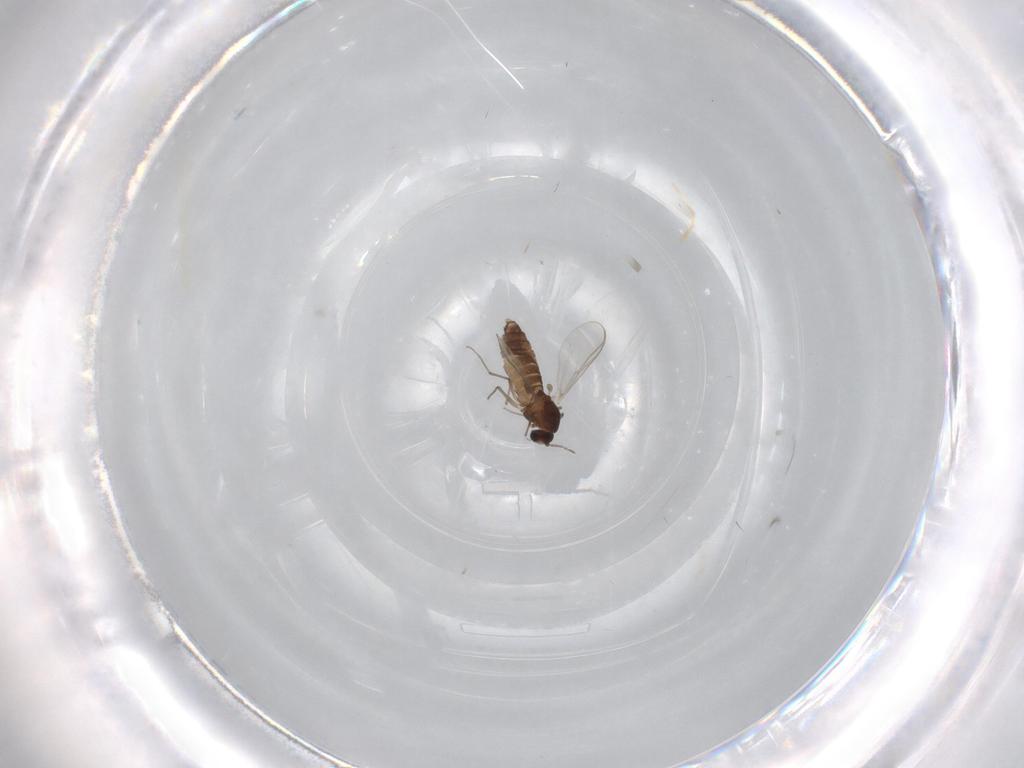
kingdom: Animalia
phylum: Arthropoda
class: Insecta
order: Diptera
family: Chironomidae
